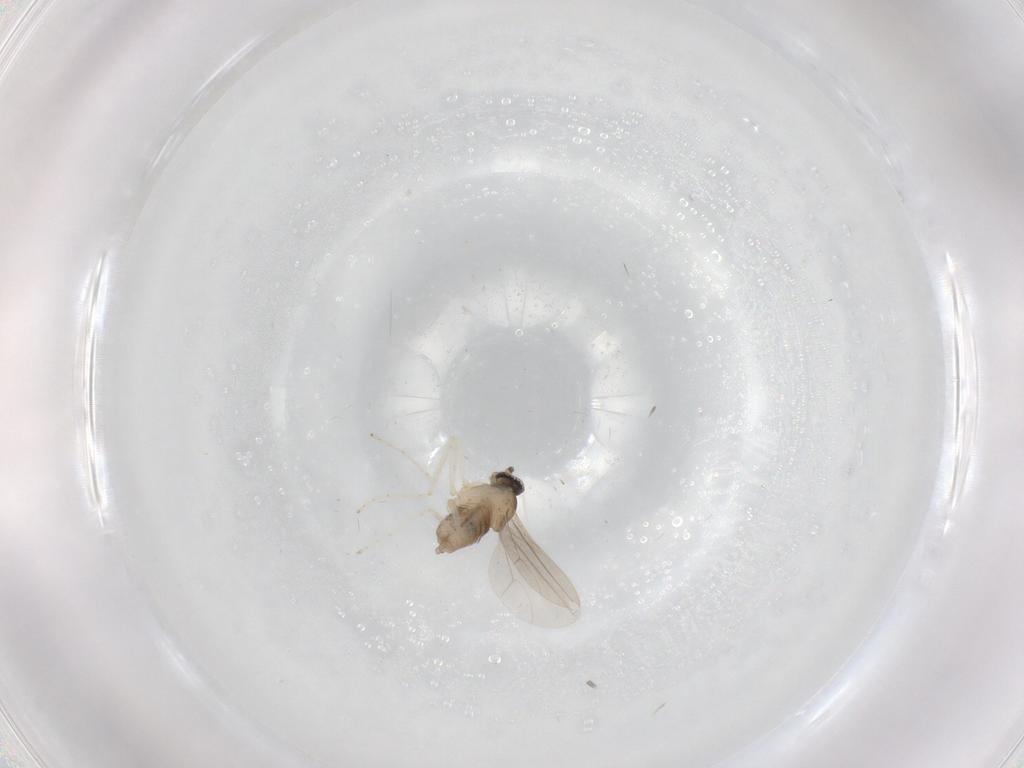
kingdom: Animalia
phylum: Arthropoda
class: Insecta
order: Diptera
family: Cecidomyiidae
